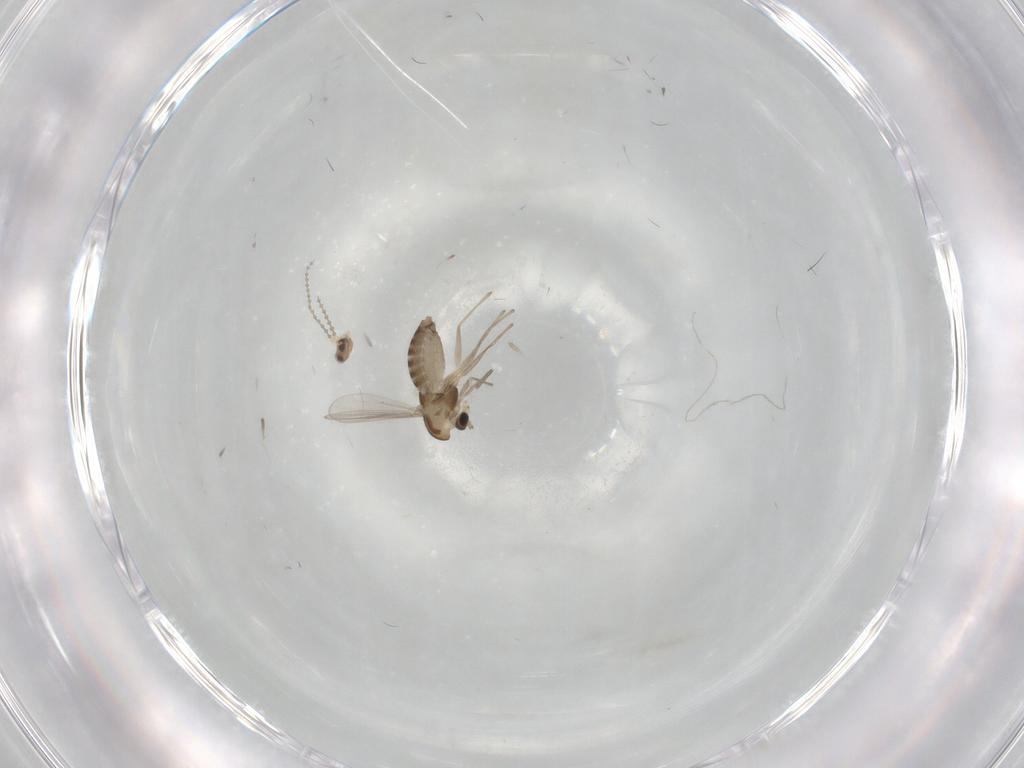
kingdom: Animalia
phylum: Arthropoda
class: Insecta
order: Diptera
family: Chironomidae
